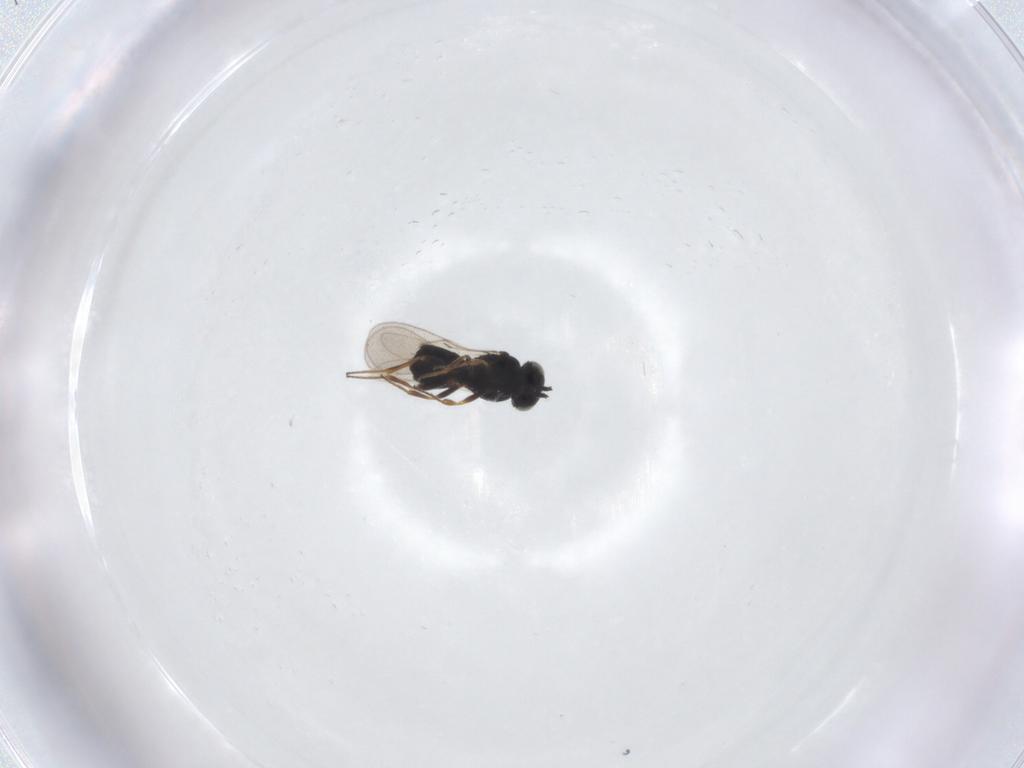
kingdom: Animalia
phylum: Arthropoda
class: Insecta
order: Hymenoptera
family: Scelionidae
